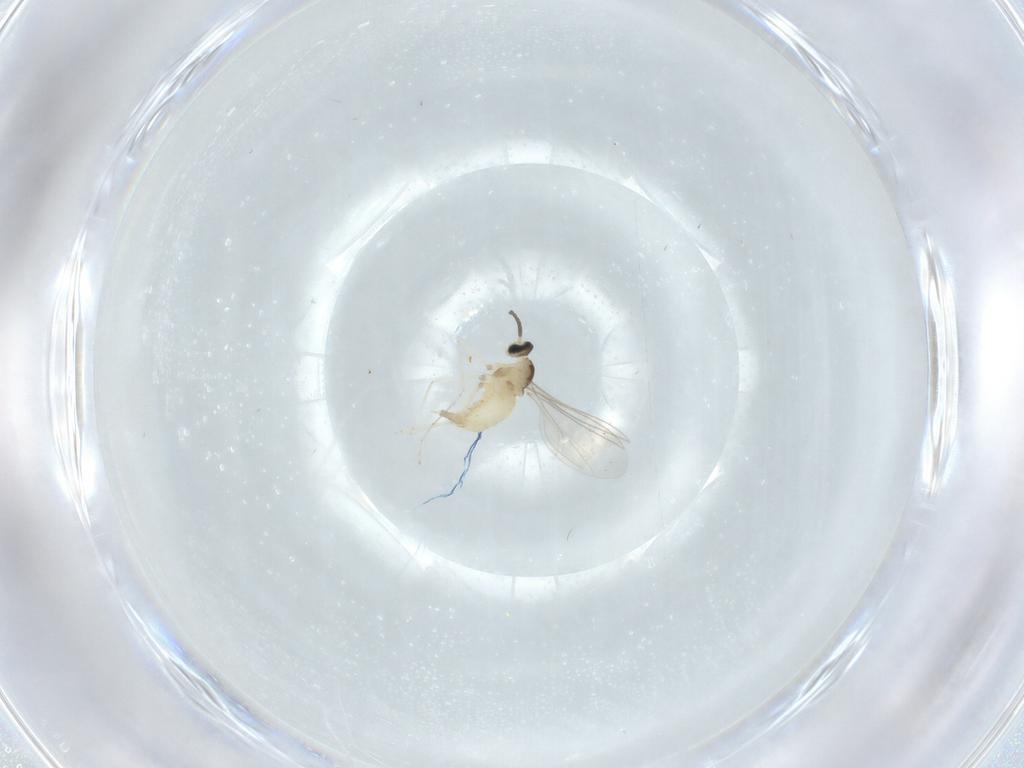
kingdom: Animalia
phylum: Arthropoda
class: Insecta
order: Diptera
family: Cecidomyiidae
